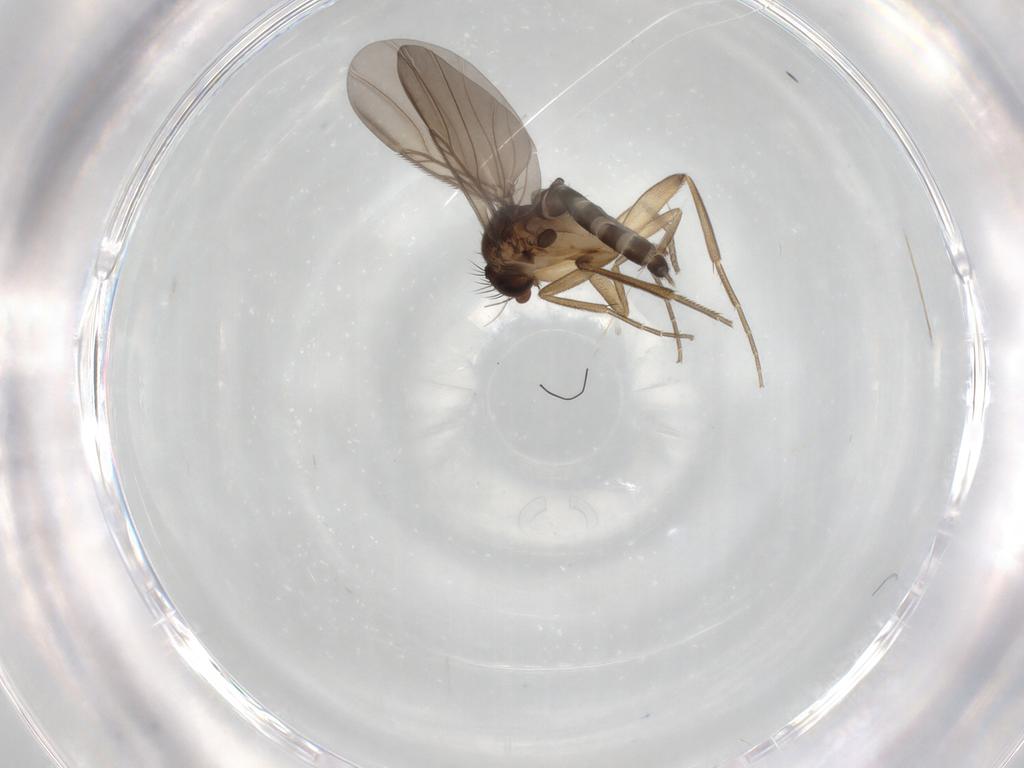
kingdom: Animalia
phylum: Arthropoda
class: Insecta
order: Diptera
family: Phoridae
